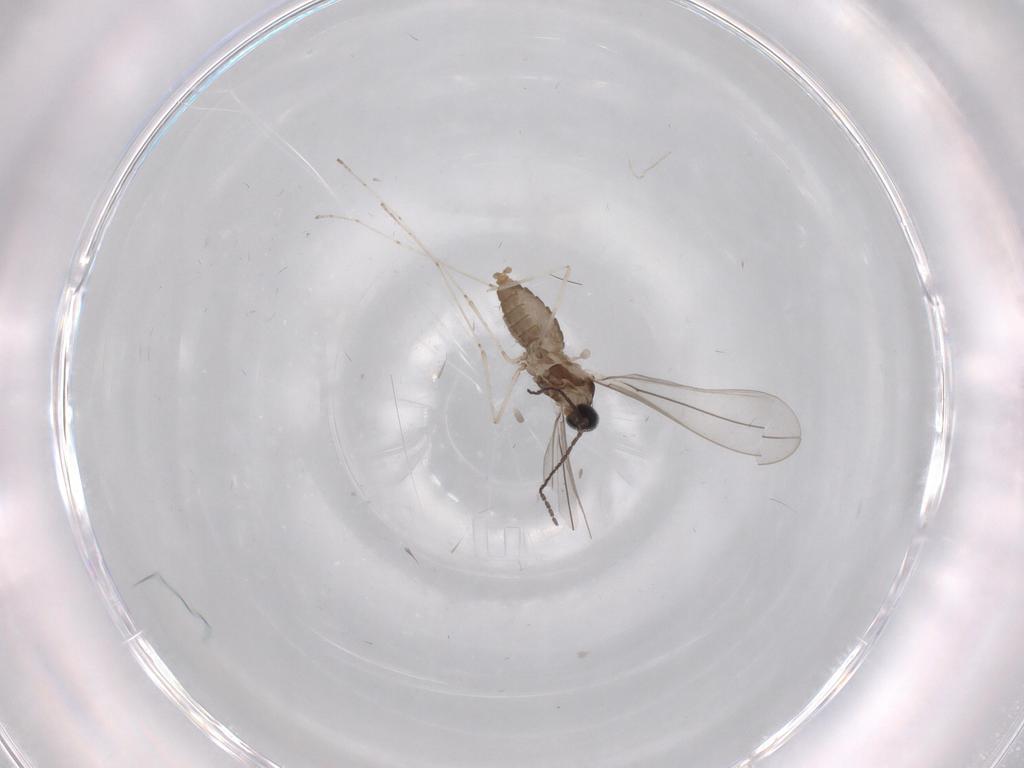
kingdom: Animalia
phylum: Arthropoda
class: Insecta
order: Diptera
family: Cecidomyiidae
